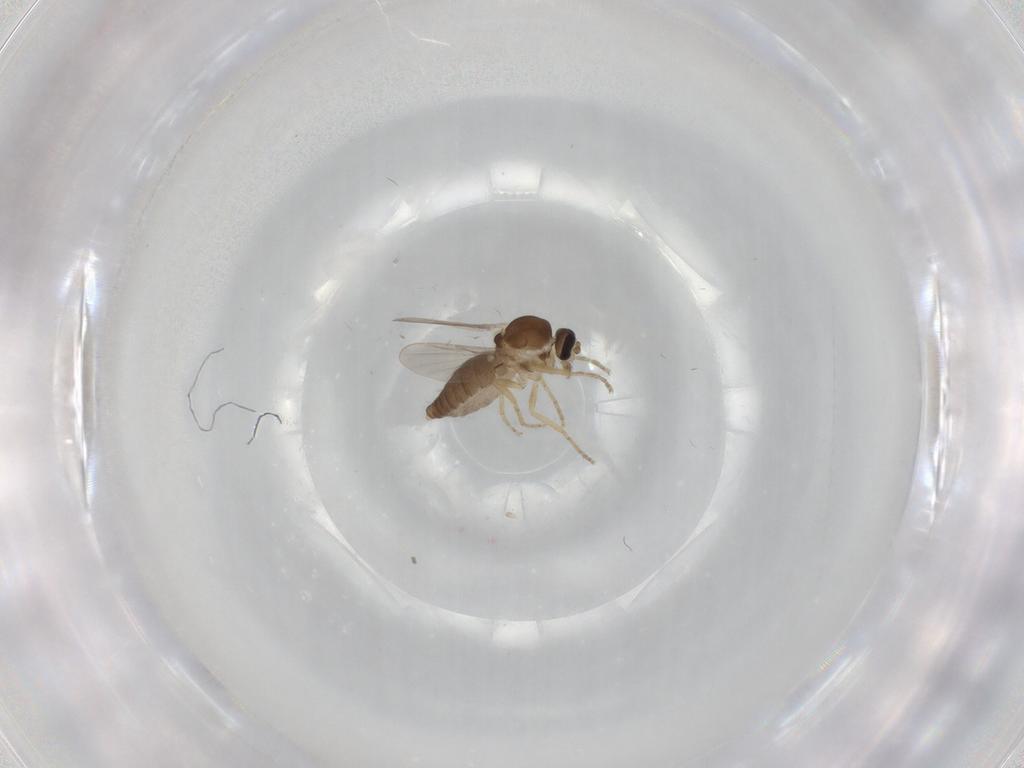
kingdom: Animalia
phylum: Arthropoda
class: Insecta
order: Diptera
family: Ceratopogonidae
